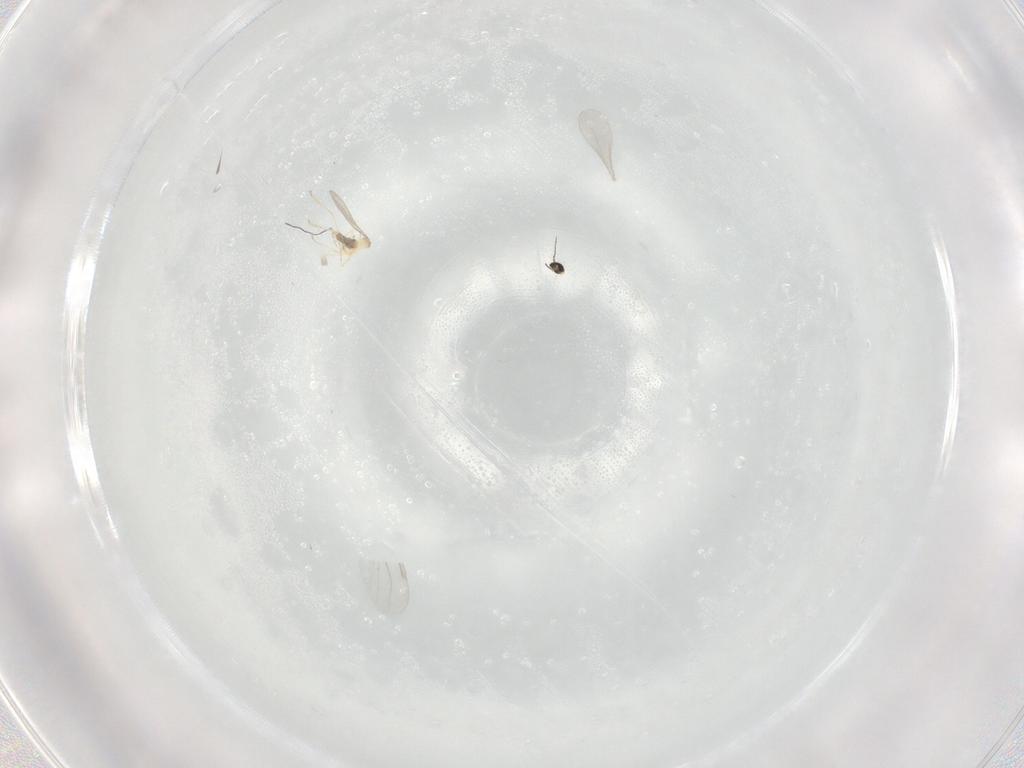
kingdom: Animalia
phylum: Arthropoda
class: Insecta
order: Diptera
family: Cecidomyiidae
